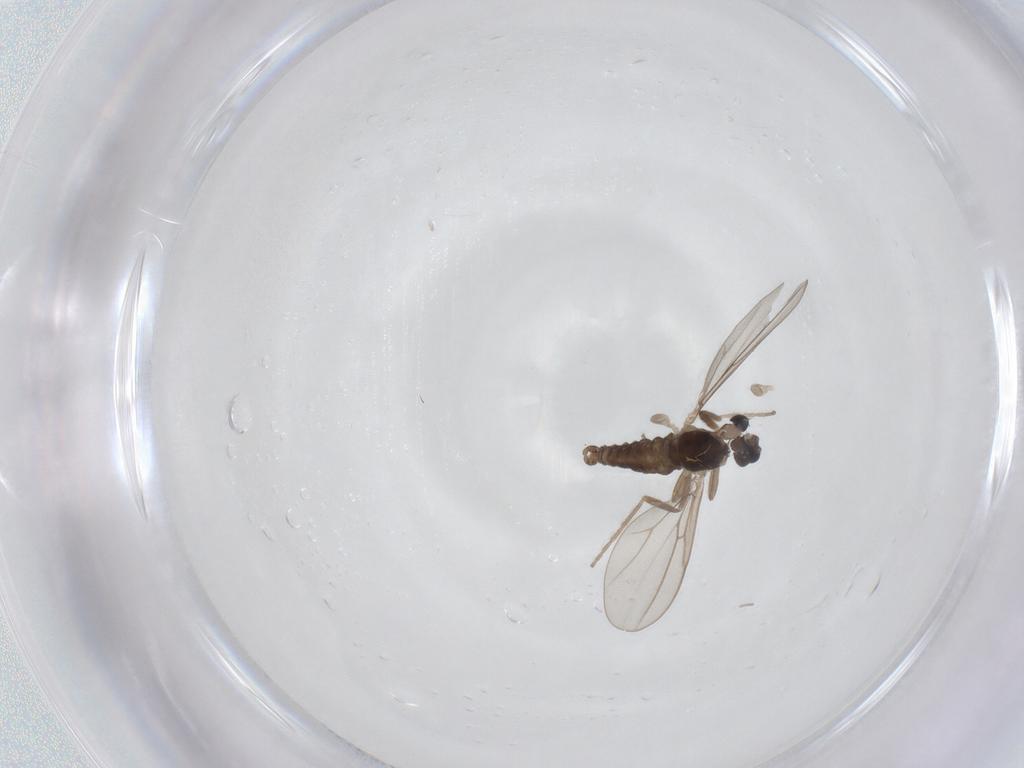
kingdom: Animalia
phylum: Arthropoda
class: Insecta
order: Diptera
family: Cecidomyiidae
